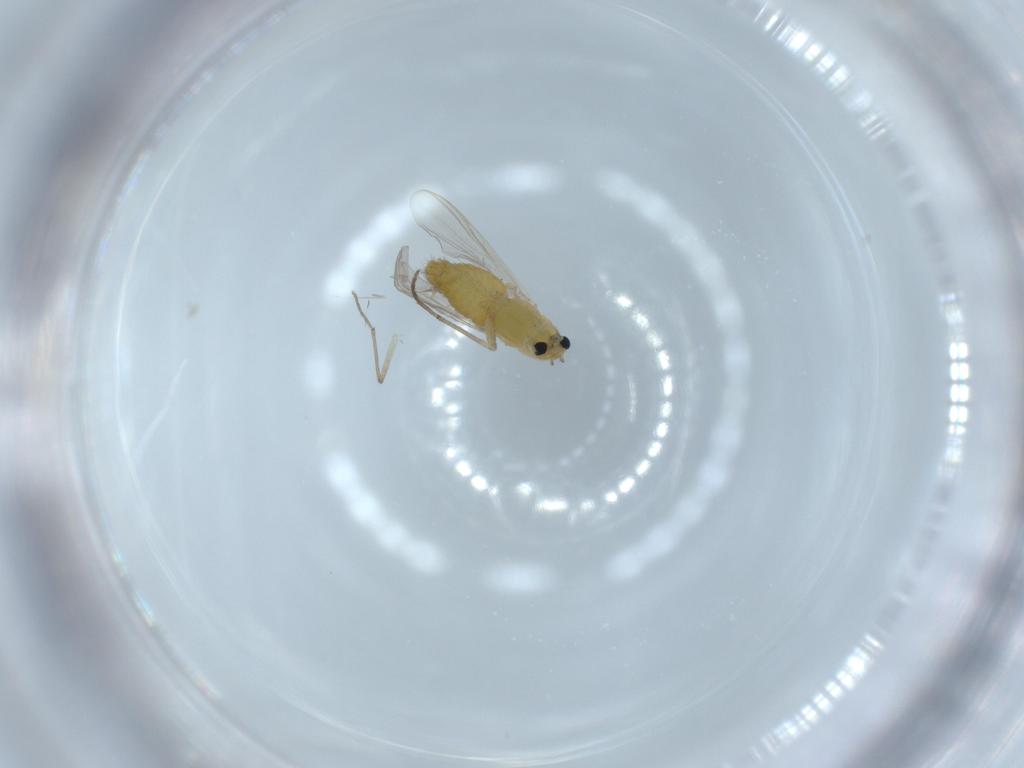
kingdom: Animalia
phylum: Arthropoda
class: Insecta
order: Diptera
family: Chironomidae
